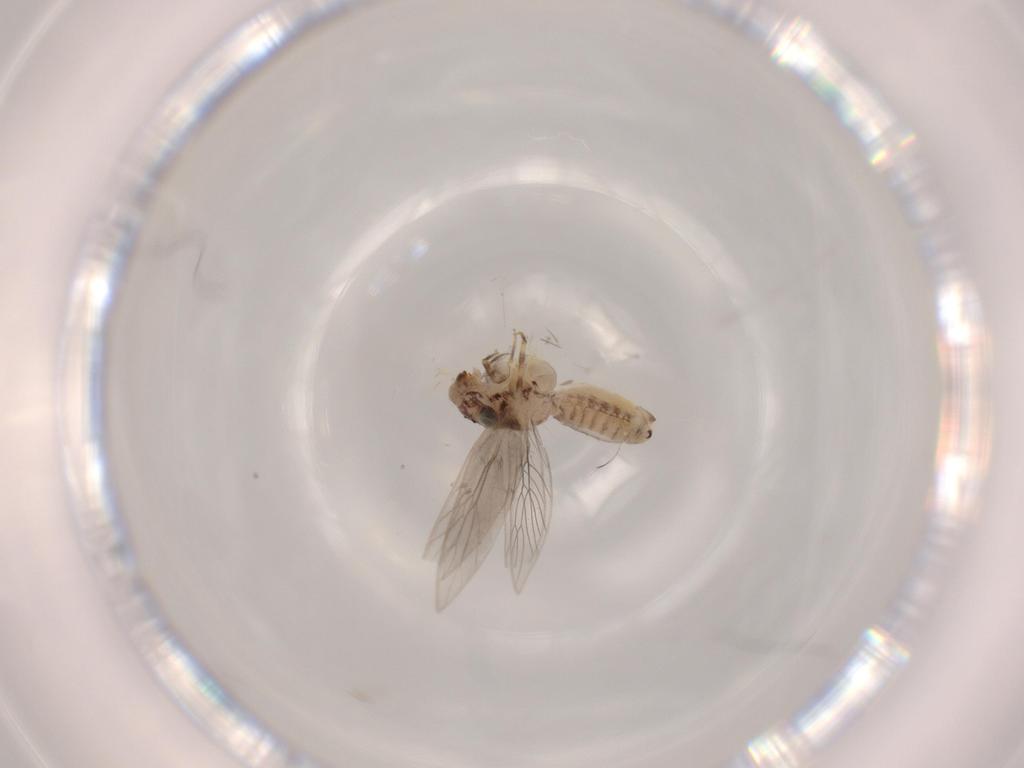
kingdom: Animalia
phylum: Arthropoda
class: Insecta
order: Psocodea
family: Lepidopsocidae
